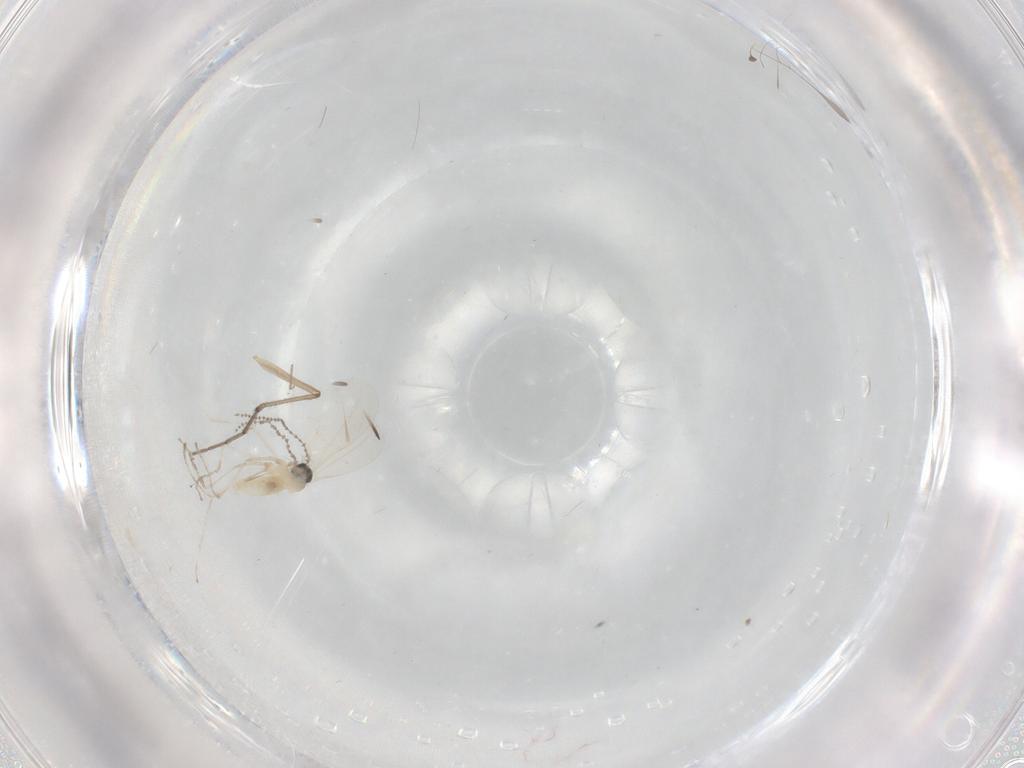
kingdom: Animalia
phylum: Arthropoda
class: Insecta
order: Diptera
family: Ceratopogonidae
